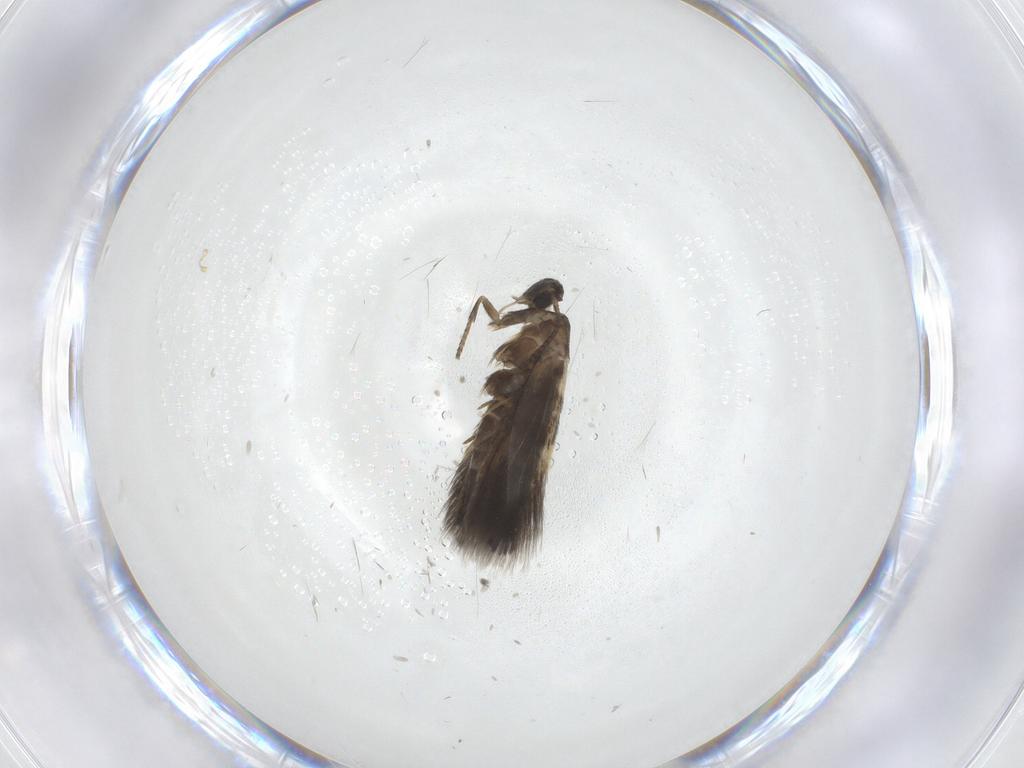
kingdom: Animalia
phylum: Arthropoda
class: Insecta
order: Lepidoptera
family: Heliozelidae
